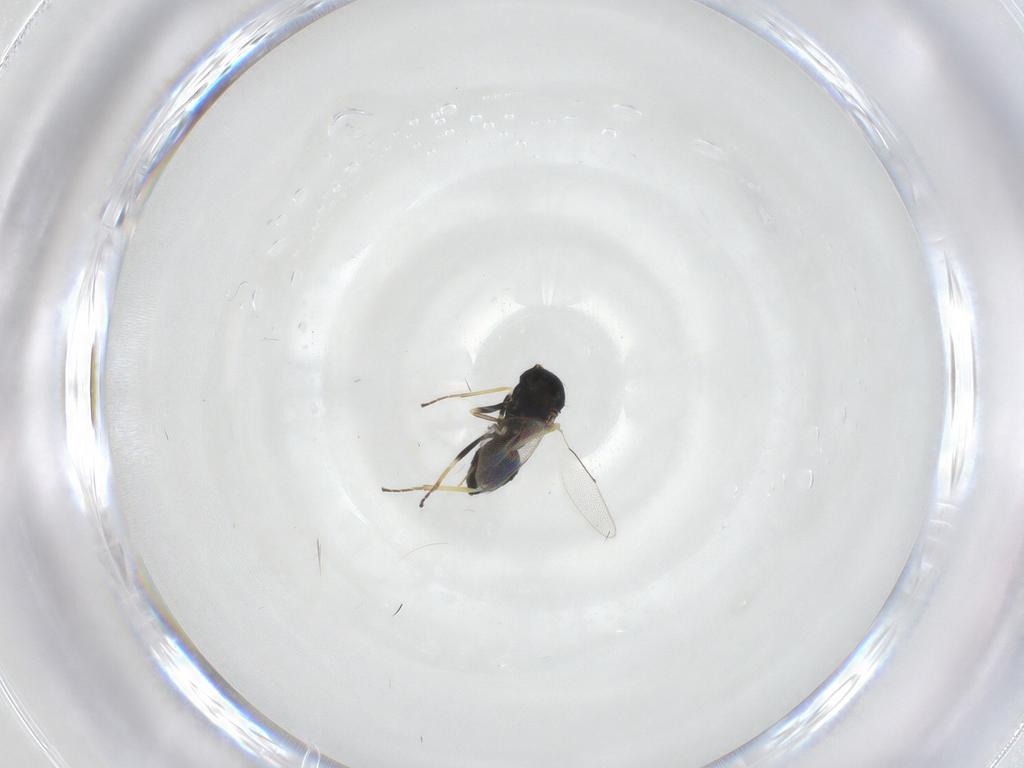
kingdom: Animalia
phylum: Arthropoda
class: Insecta
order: Hymenoptera
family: Eulophidae
